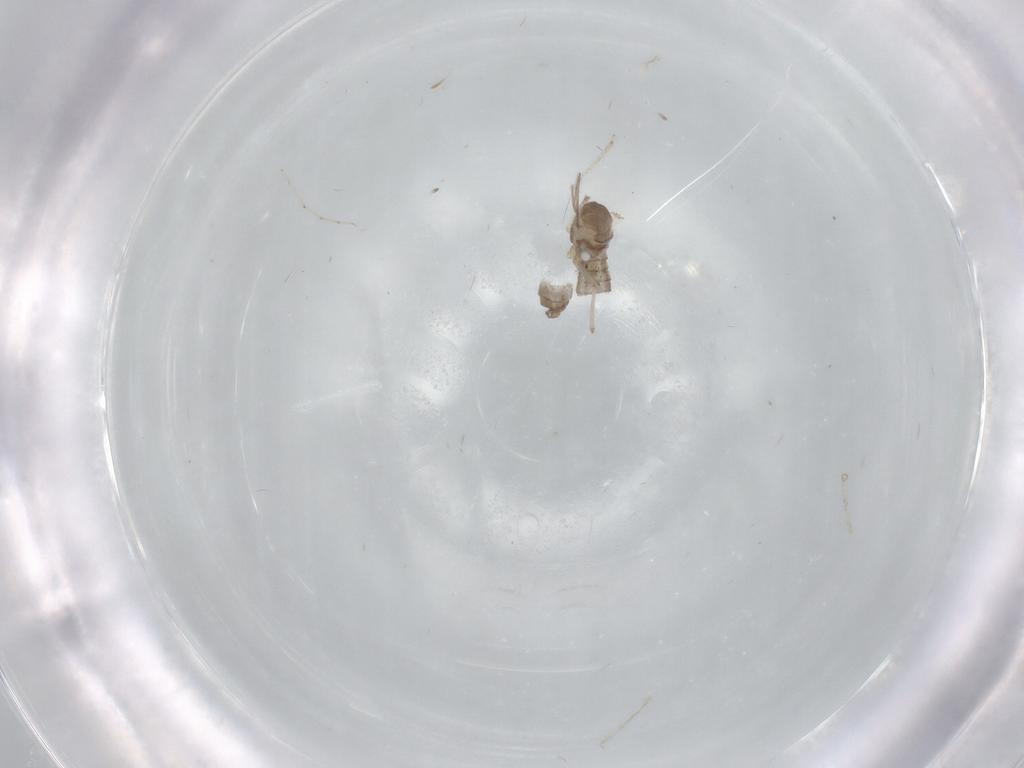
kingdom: Animalia
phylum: Arthropoda
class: Insecta
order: Diptera
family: Cecidomyiidae
